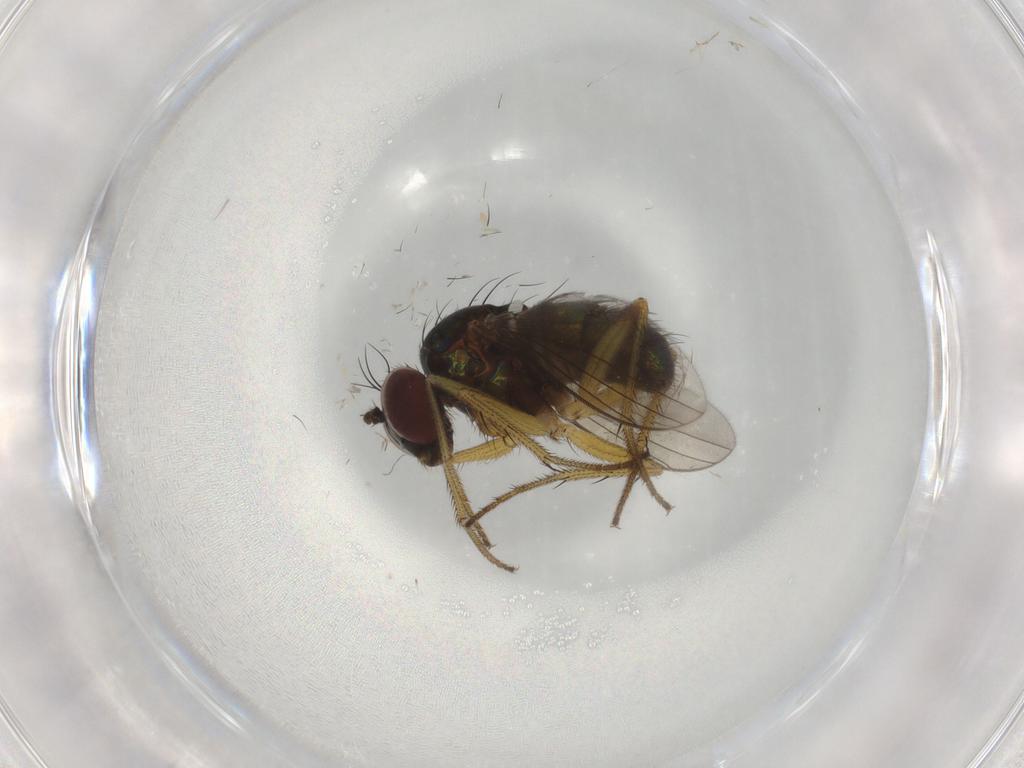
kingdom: Animalia
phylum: Arthropoda
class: Insecta
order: Diptera
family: Dolichopodidae
